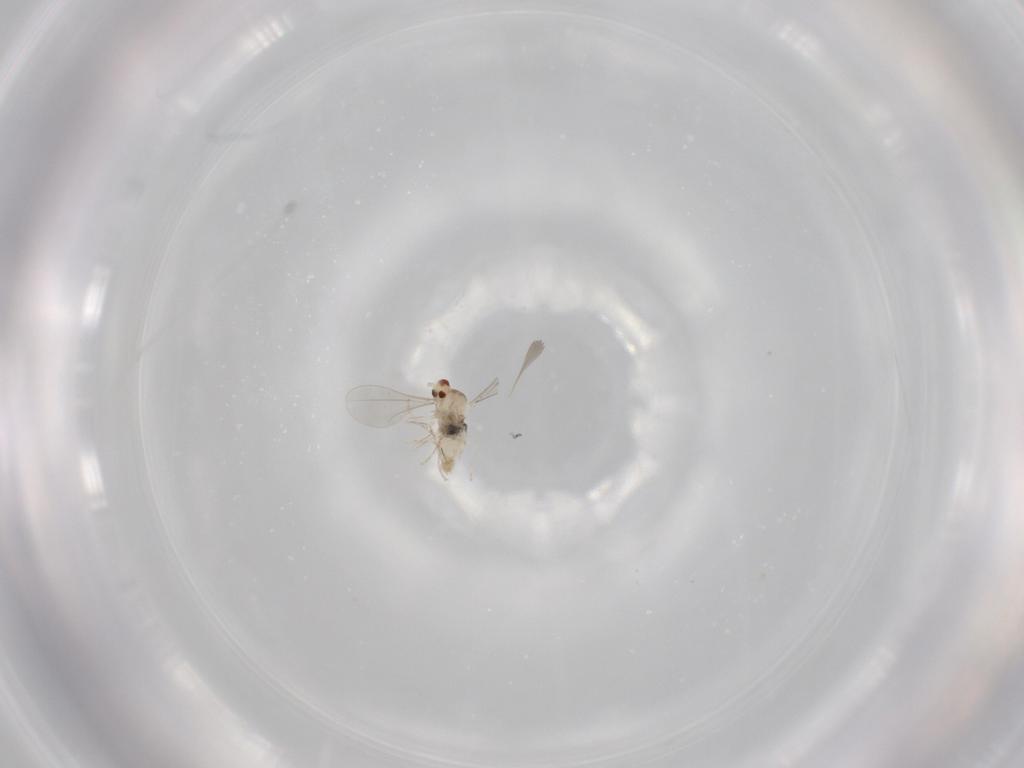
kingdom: Animalia
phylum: Arthropoda
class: Insecta
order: Diptera
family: Cecidomyiidae
